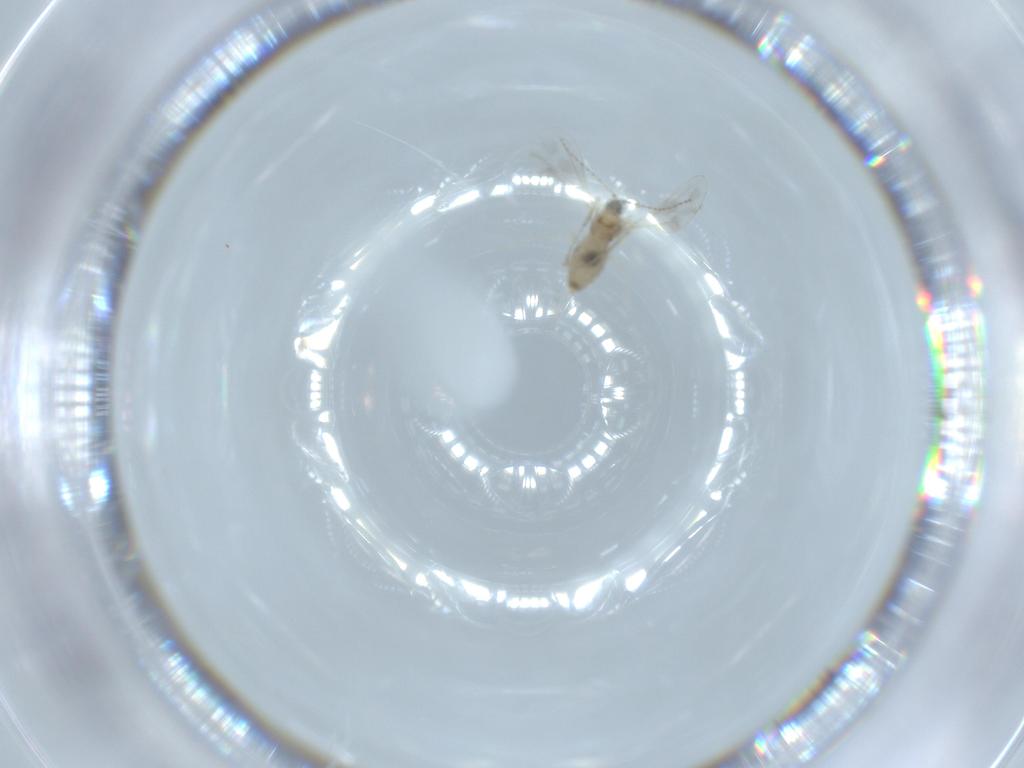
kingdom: Animalia
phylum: Arthropoda
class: Insecta
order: Diptera
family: Cecidomyiidae
